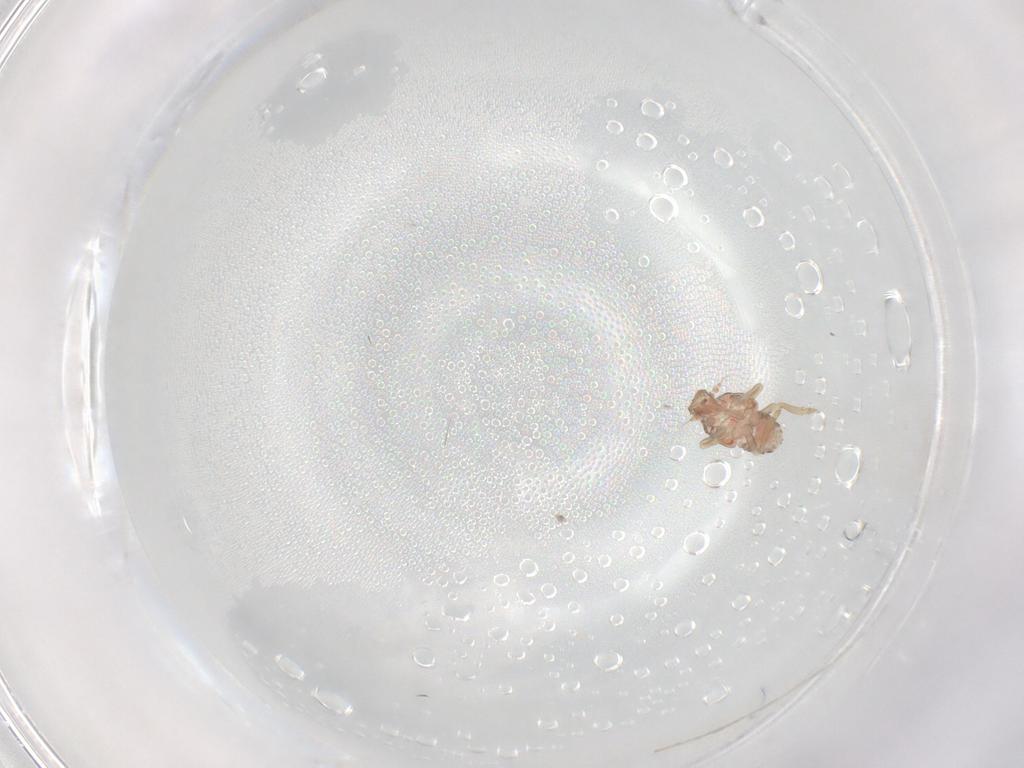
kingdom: Animalia
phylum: Arthropoda
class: Insecta
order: Hemiptera
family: Flatidae
